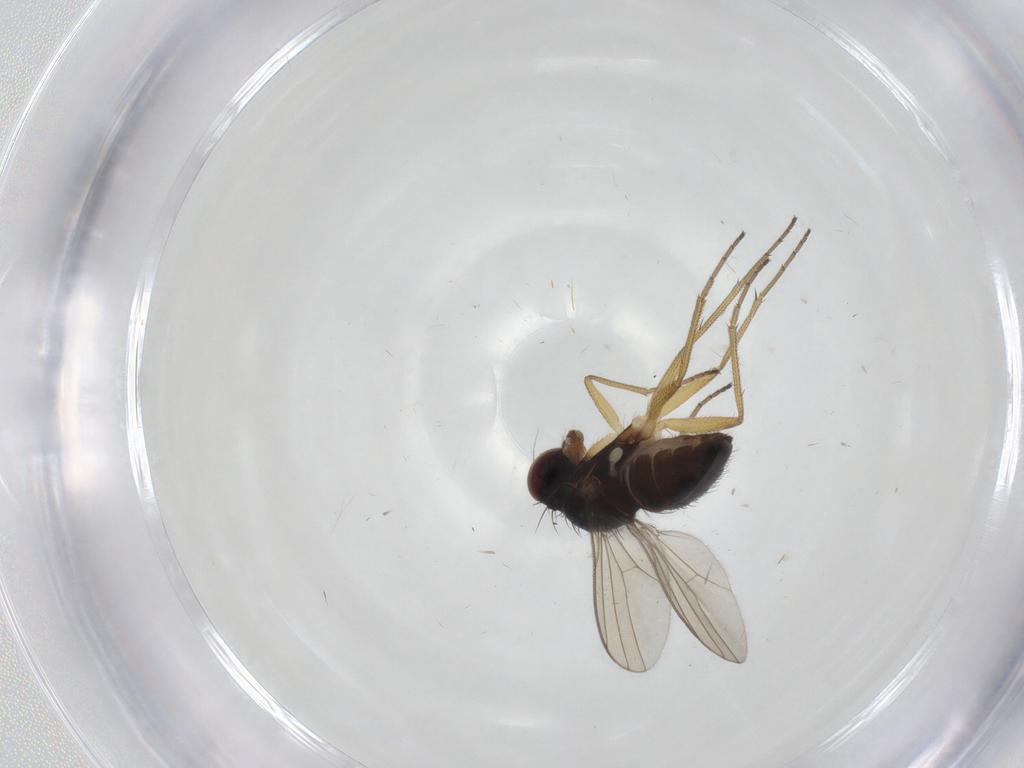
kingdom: Animalia
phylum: Arthropoda
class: Insecta
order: Diptera
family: Dolichopodidae
